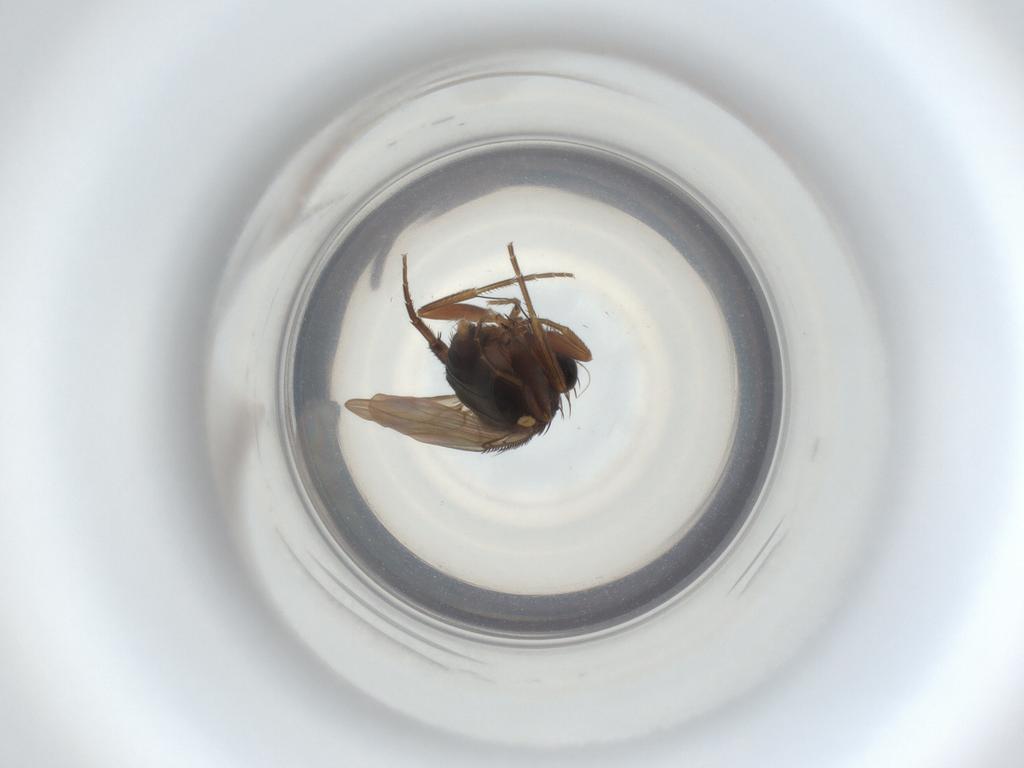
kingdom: Animalia
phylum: Arthropoda
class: Insecta
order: Diptera
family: Phoridae
